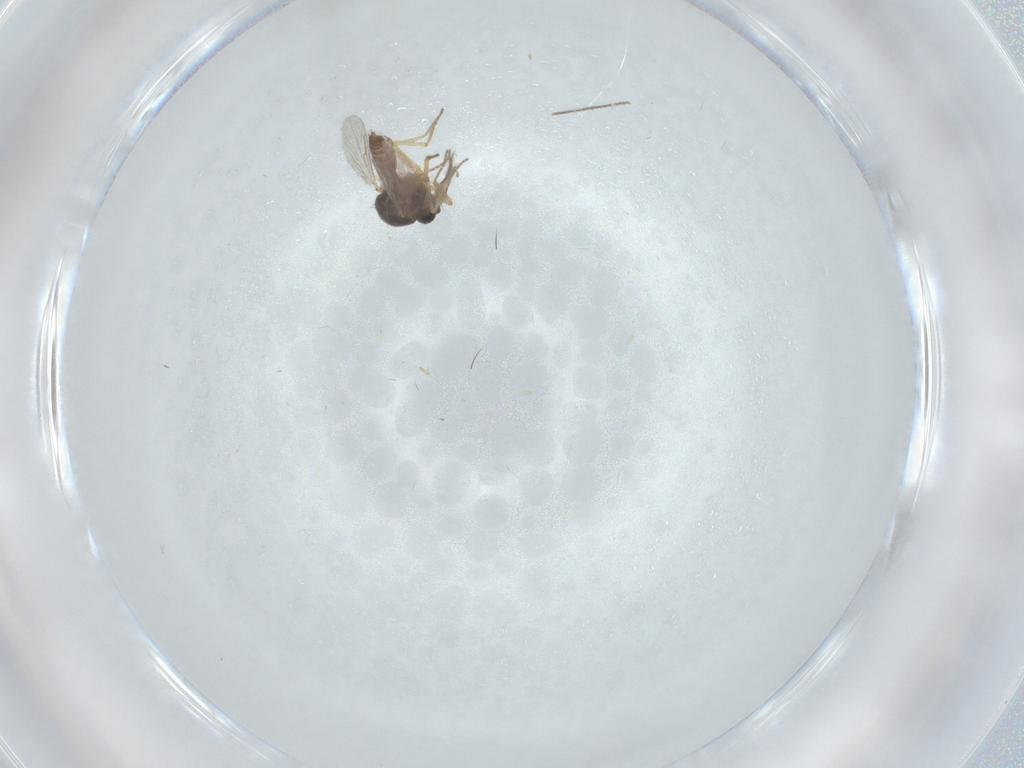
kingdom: Animalia
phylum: Arthropoda
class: Insecta
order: Diptera
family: Ceratopogonidae
